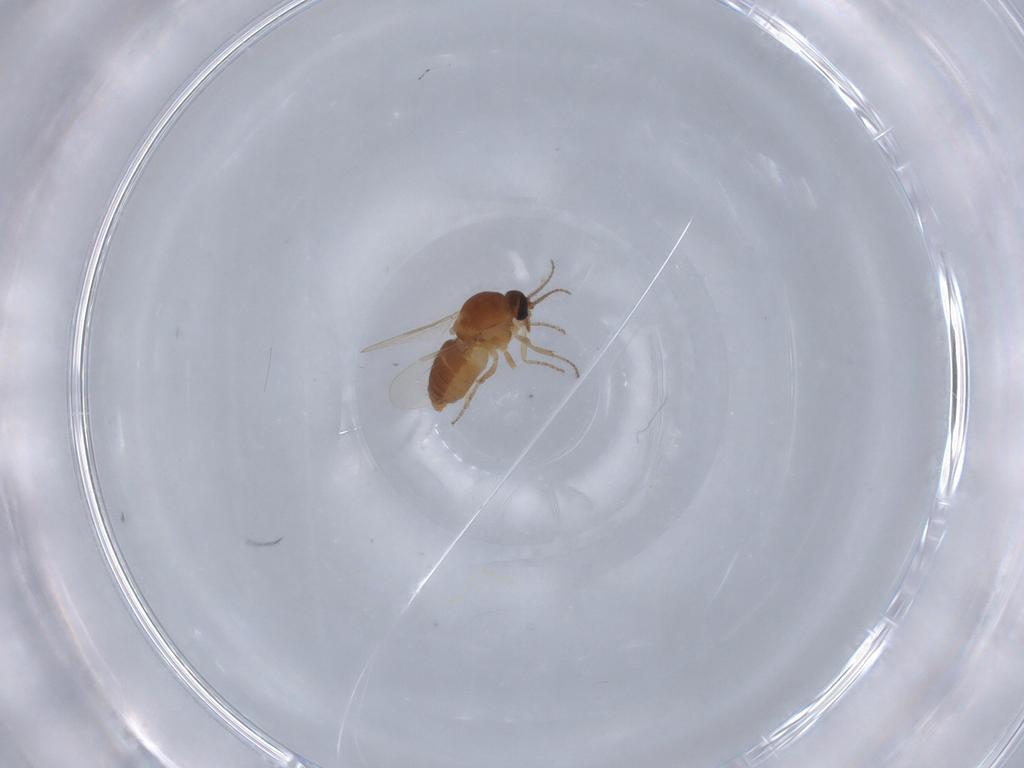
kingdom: Animalia
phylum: Arthropoda
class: Insecta
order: Diptera
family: Ceratopogonidae
